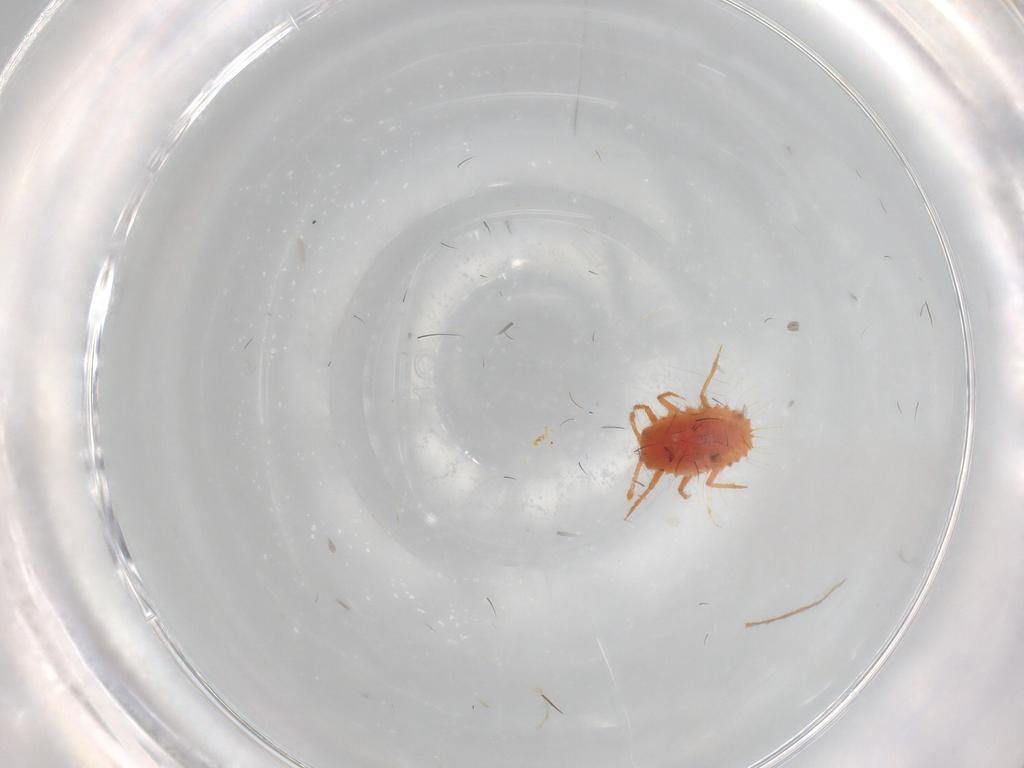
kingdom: Animalia
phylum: Arthropoda
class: Insecta
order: Hemiptera
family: Coccoidea_incertae_sedis
